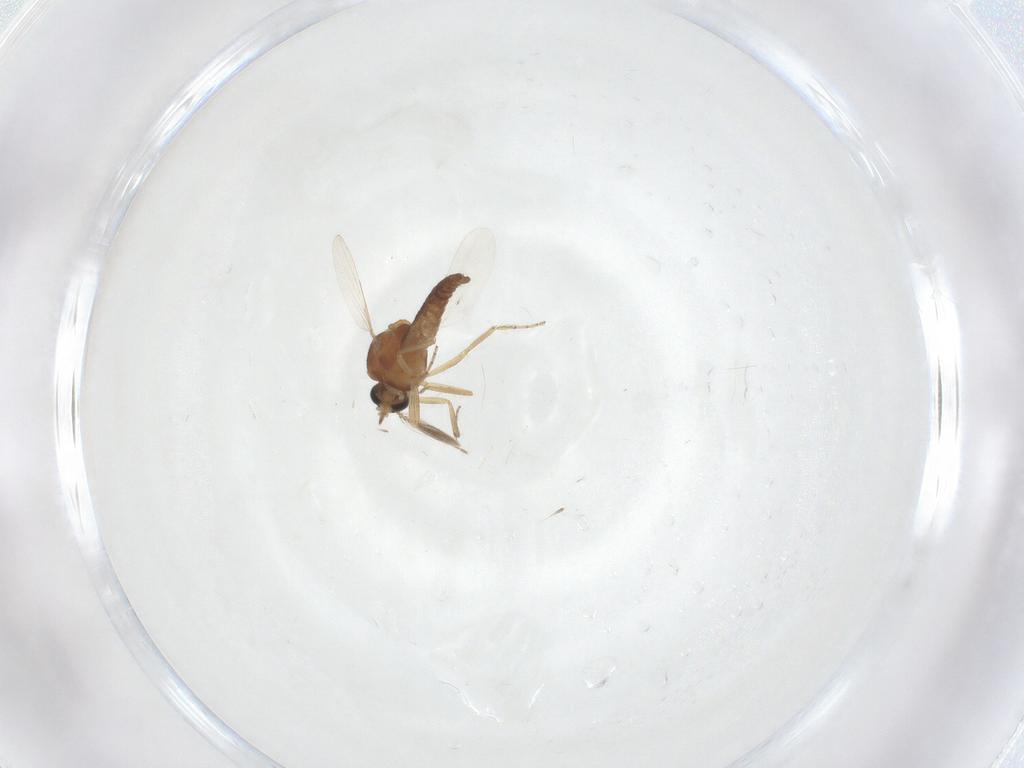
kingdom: Animalia
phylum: Arthropoda
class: Insecta
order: Diptera
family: Ceratopogonidae
